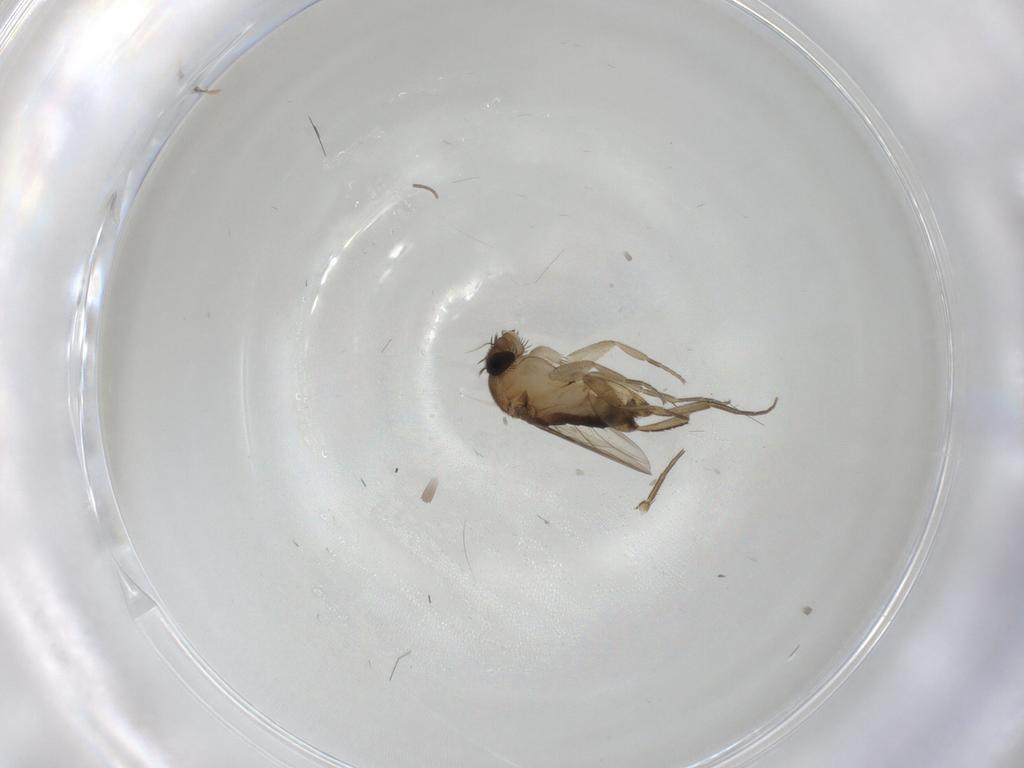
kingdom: Animalia
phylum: Arthropoda
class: Insecta
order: Diptera
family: Phoridae
